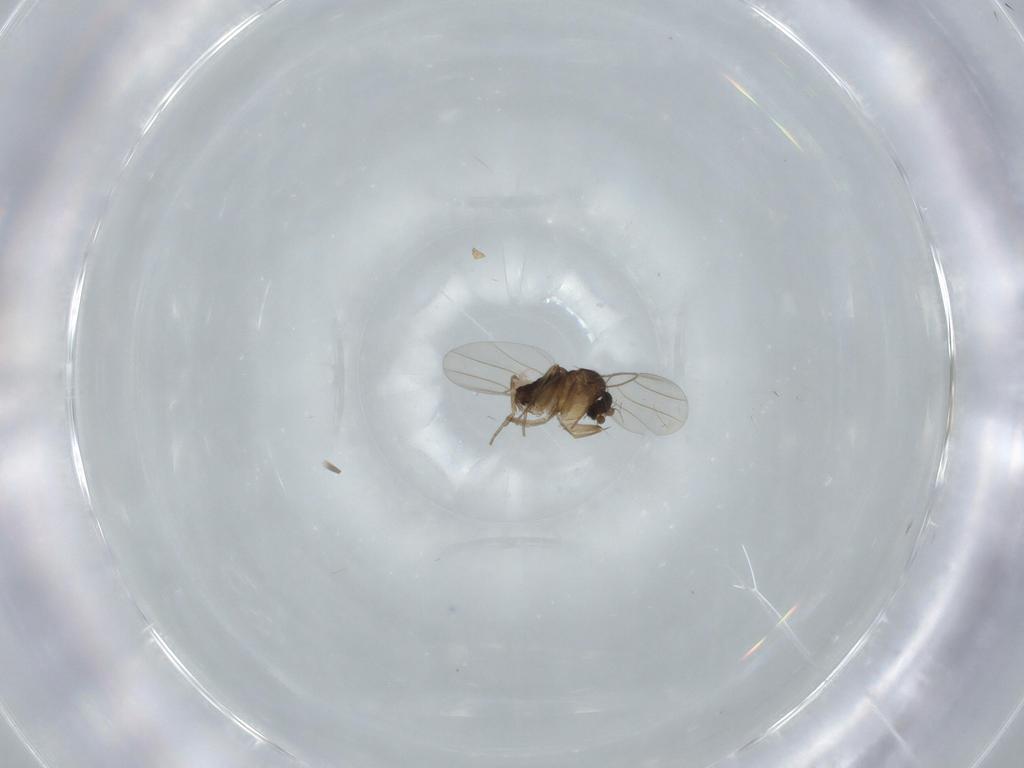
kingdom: Animalia
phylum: Arthropoda
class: Insecta
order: Diptera
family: Phoridae
